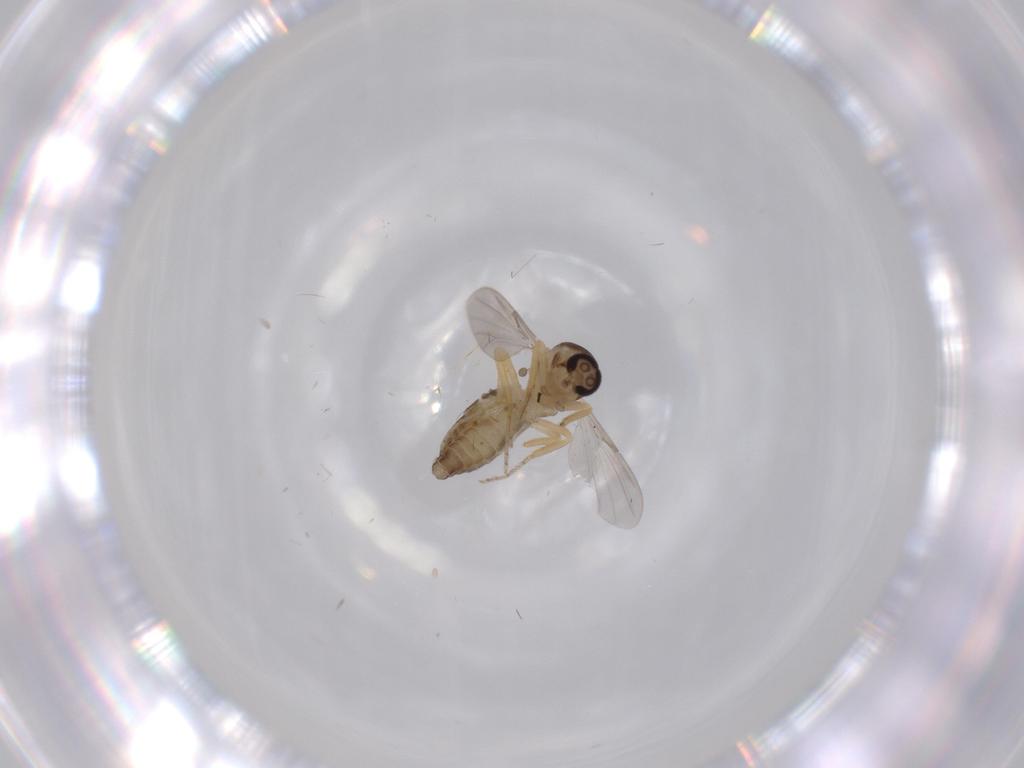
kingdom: Animalia
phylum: Arthropoda
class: Insecta
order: Diptera
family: Ceratopogonidae
